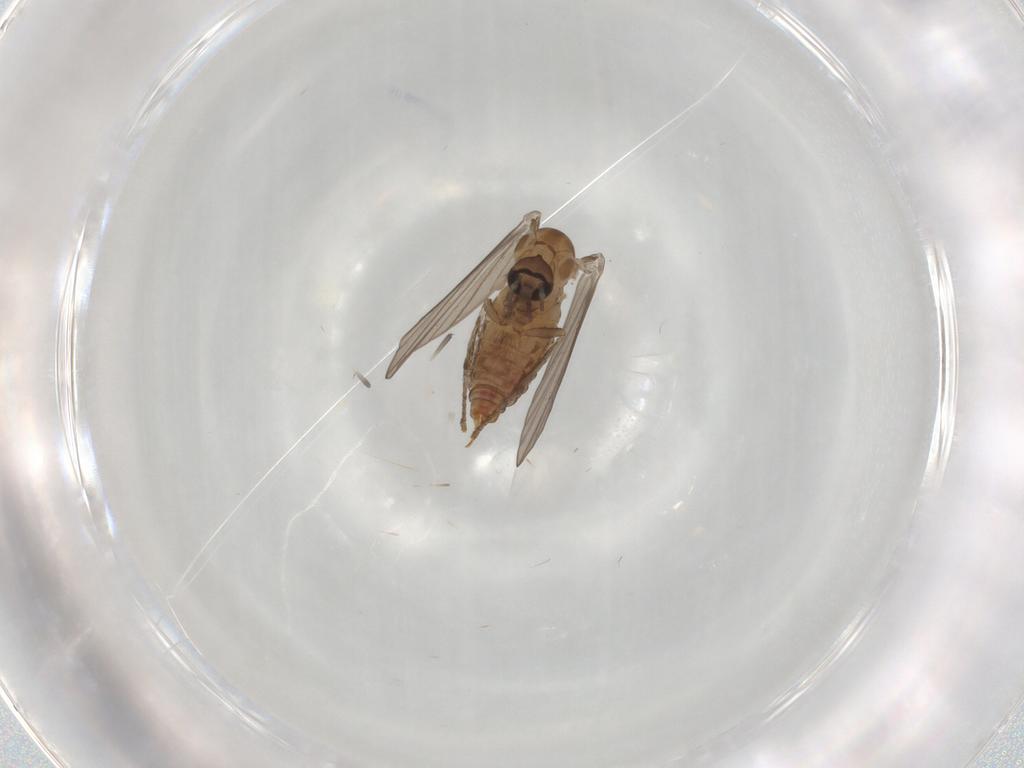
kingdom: Animalia
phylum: Arthropoda
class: Insecta
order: Diptera
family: Psychodidae
